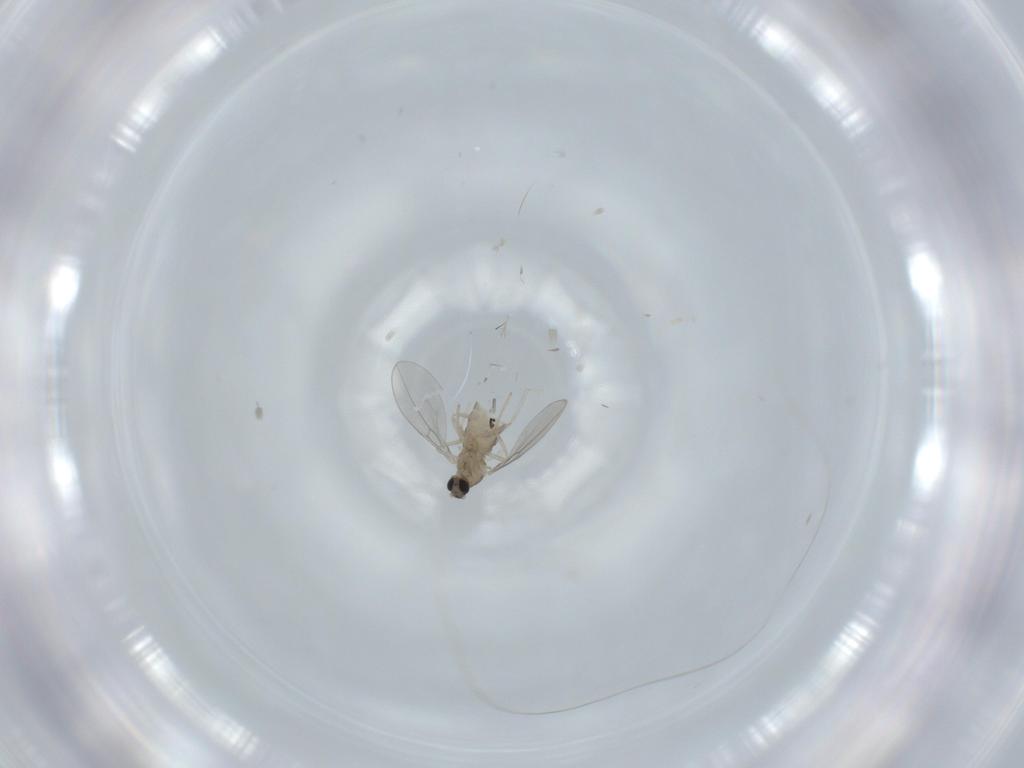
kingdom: Animalia
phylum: Arthropoda
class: Insecta
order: Diptera
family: Cecidomyiidae
